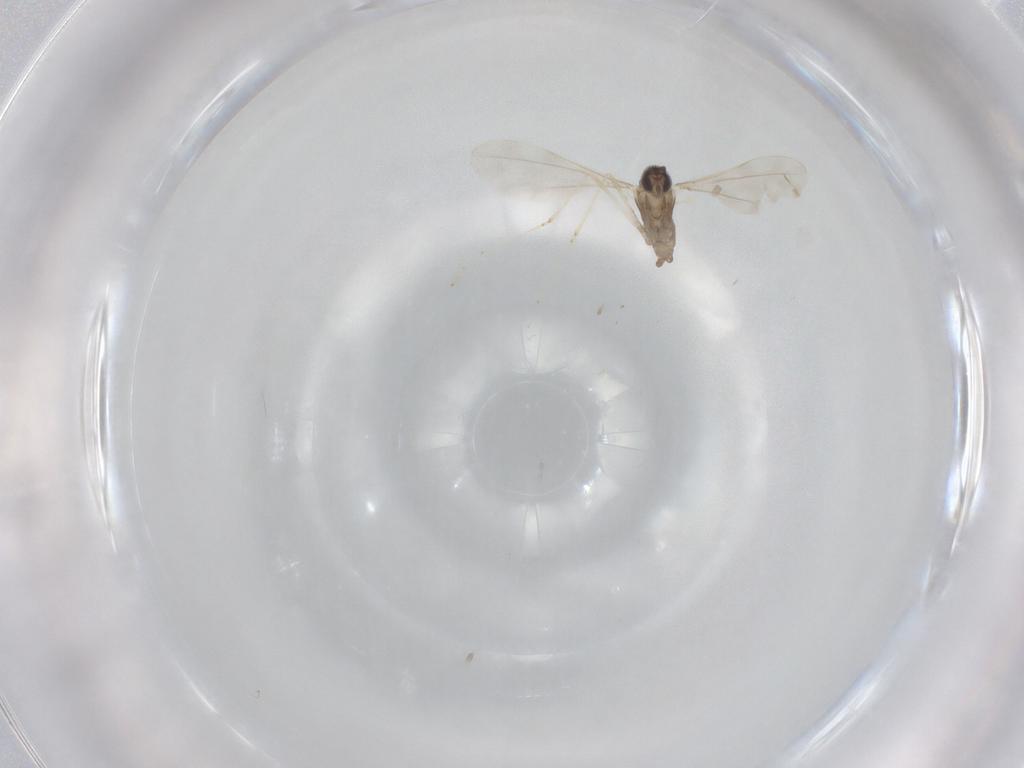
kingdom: Animalia
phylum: Arthropoda
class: Insecta
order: Diptera
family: Cecidomyiidae
